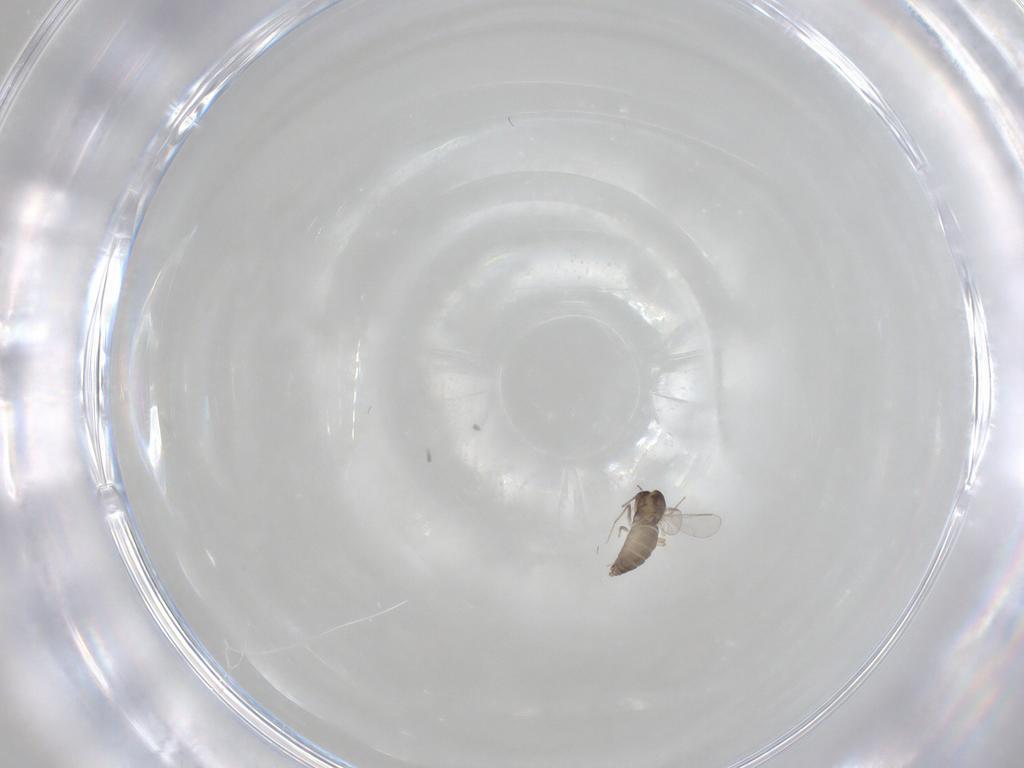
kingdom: Animalia
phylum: Arthropoda
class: Insecta
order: Diptera
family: Chironomidae
